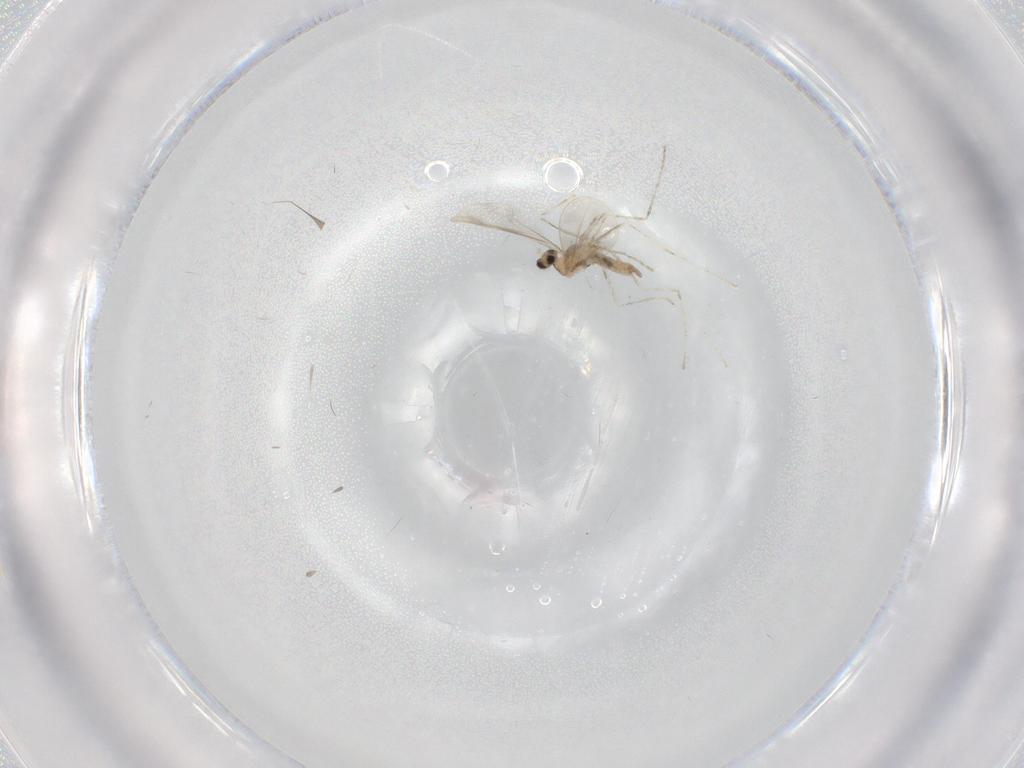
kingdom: Animalia
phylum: Arthropoda
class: Insecta
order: Diptera
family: Cecidomyiidae
